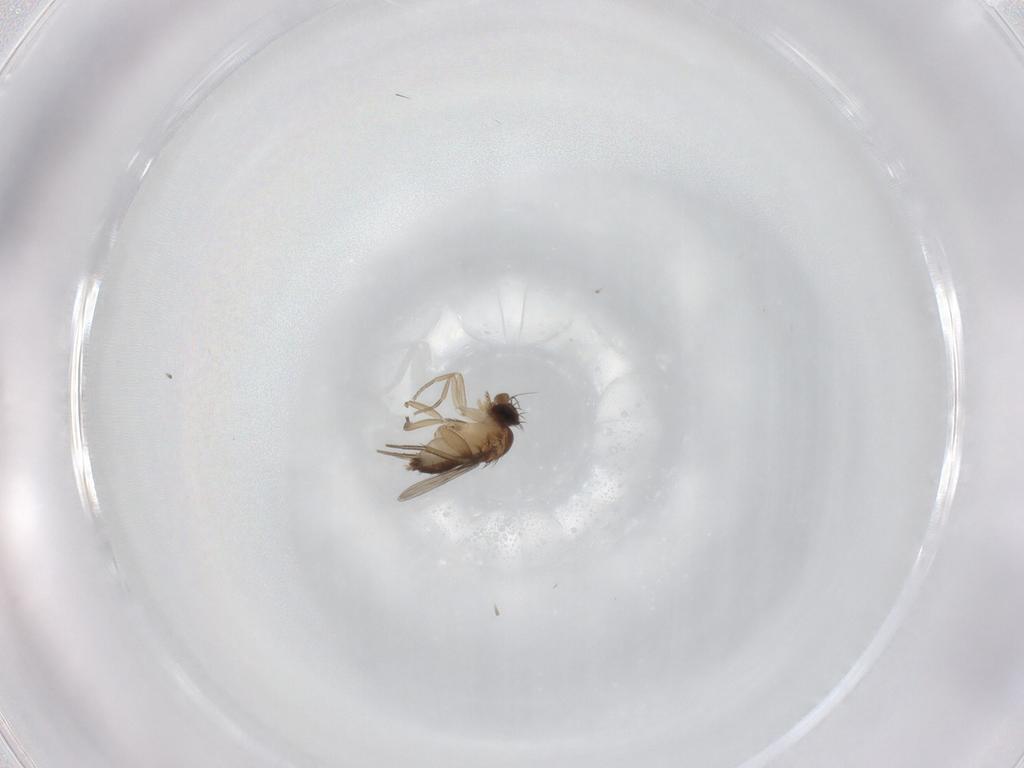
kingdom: Animalia
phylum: Arthropoda
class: Insecta
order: Diptera
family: Phoridae
